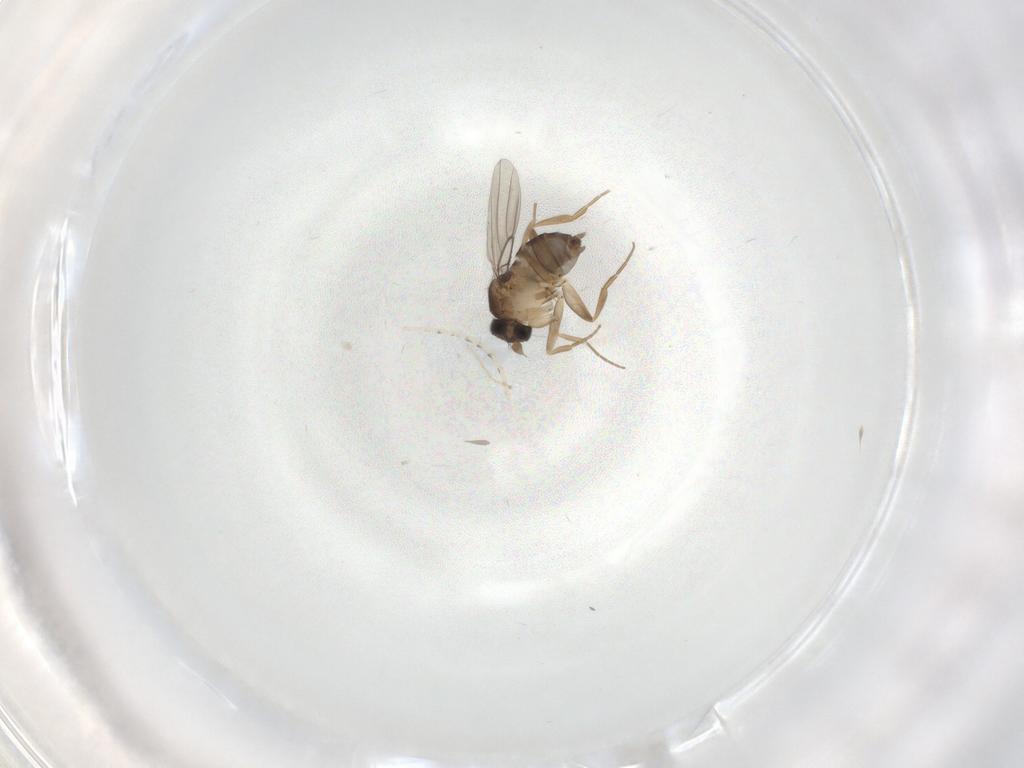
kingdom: Animalia
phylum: Arthropoda
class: Insecta
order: Diptera
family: Phoridae
